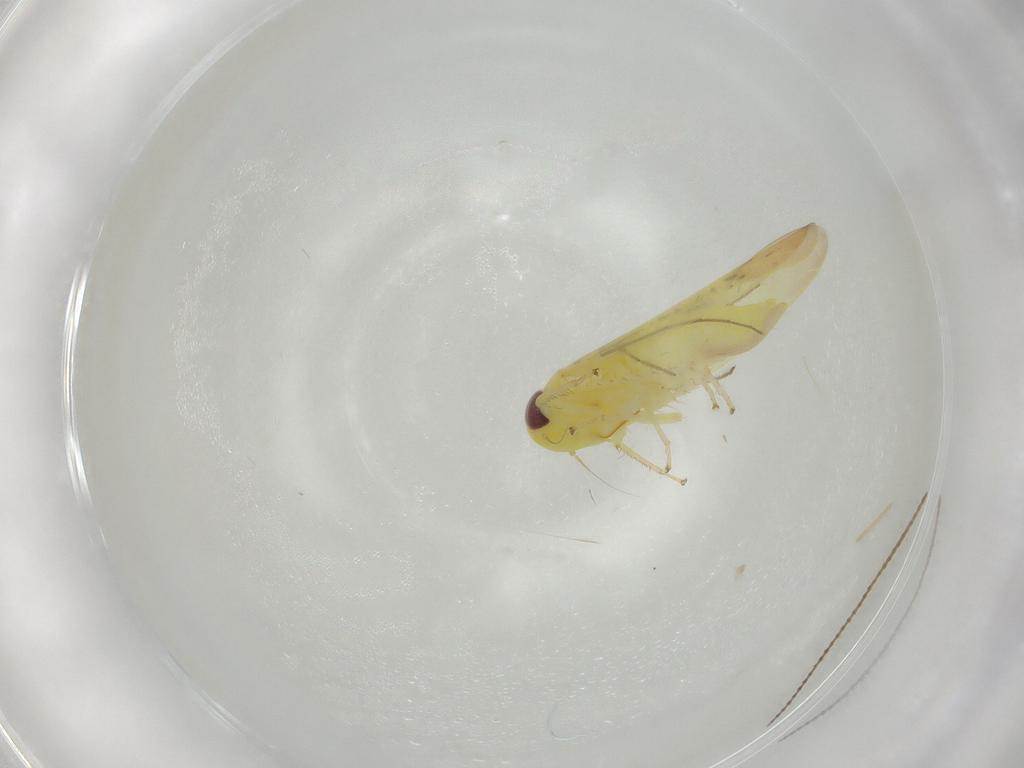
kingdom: Animalia
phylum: Arthropoda
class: Insecta
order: Hemiptera
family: Cicadellidae
